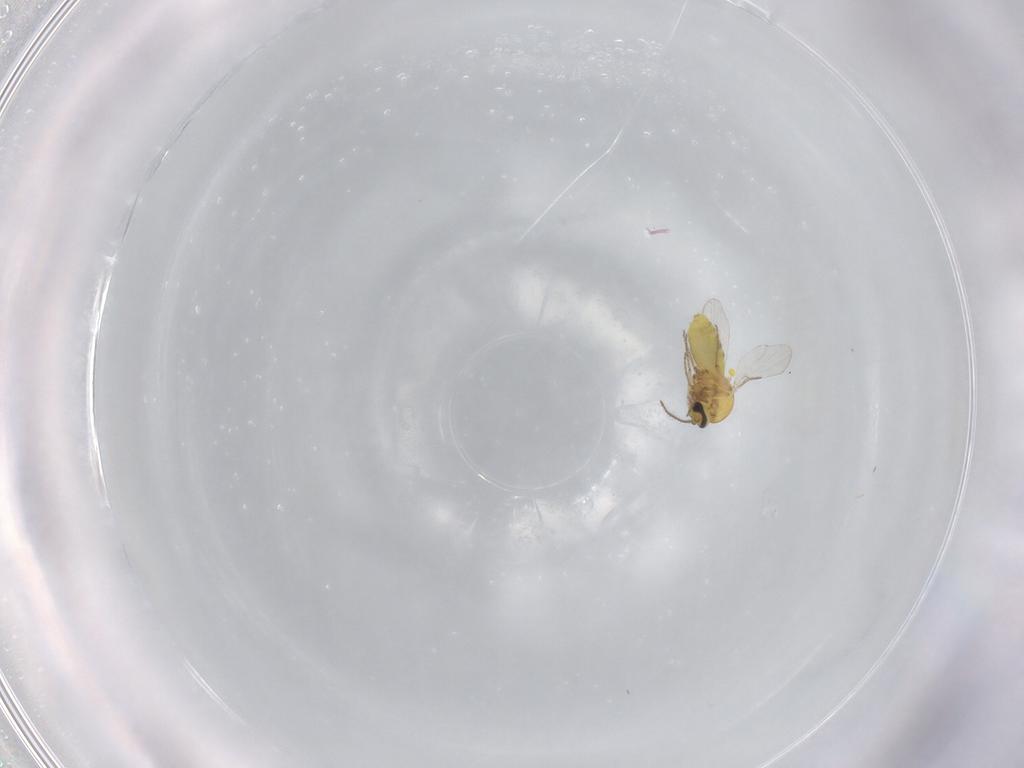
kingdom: Animalia
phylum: Arthropoda
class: Insecta
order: Diptera
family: Ceratopogonidae
